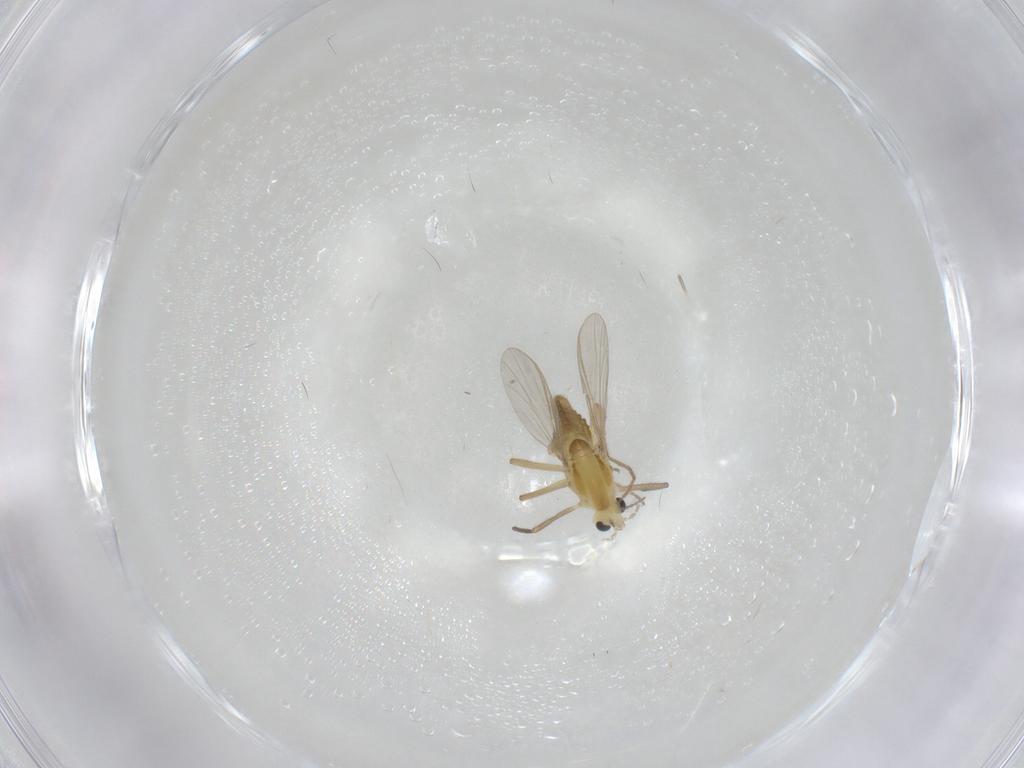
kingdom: Animalia
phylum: Arthropoda
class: Insecta
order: Diptera
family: Chironomidae
